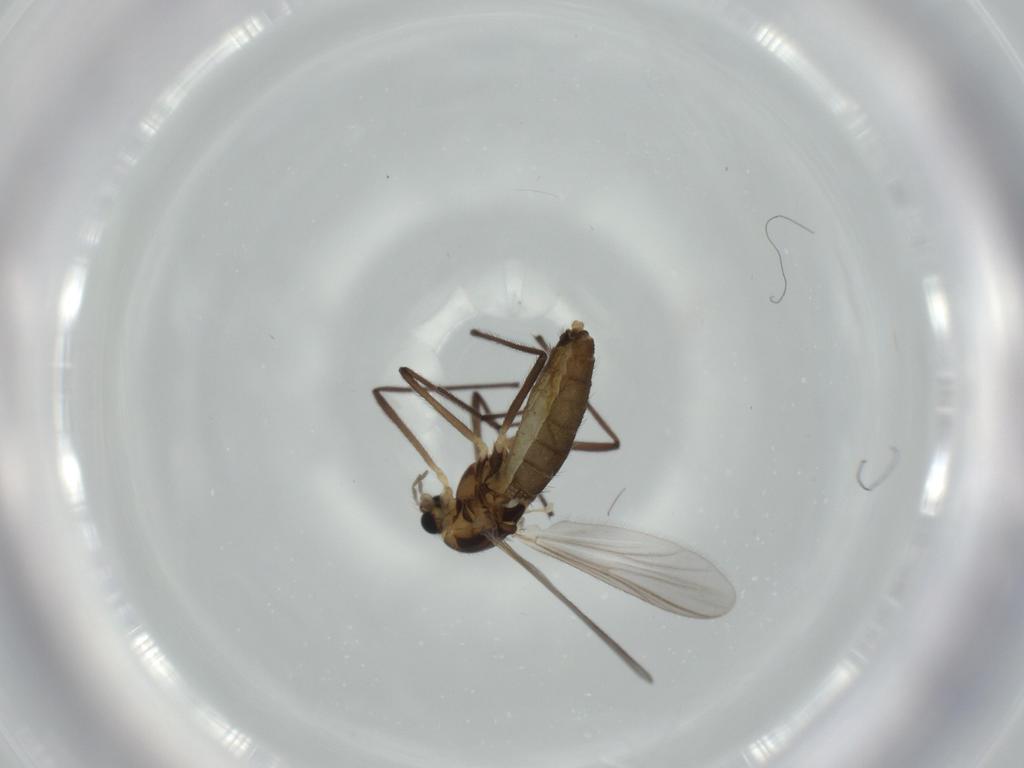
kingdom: Animalia
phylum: Arthropoda
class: Insecta
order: Diptera
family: Chironomidae
